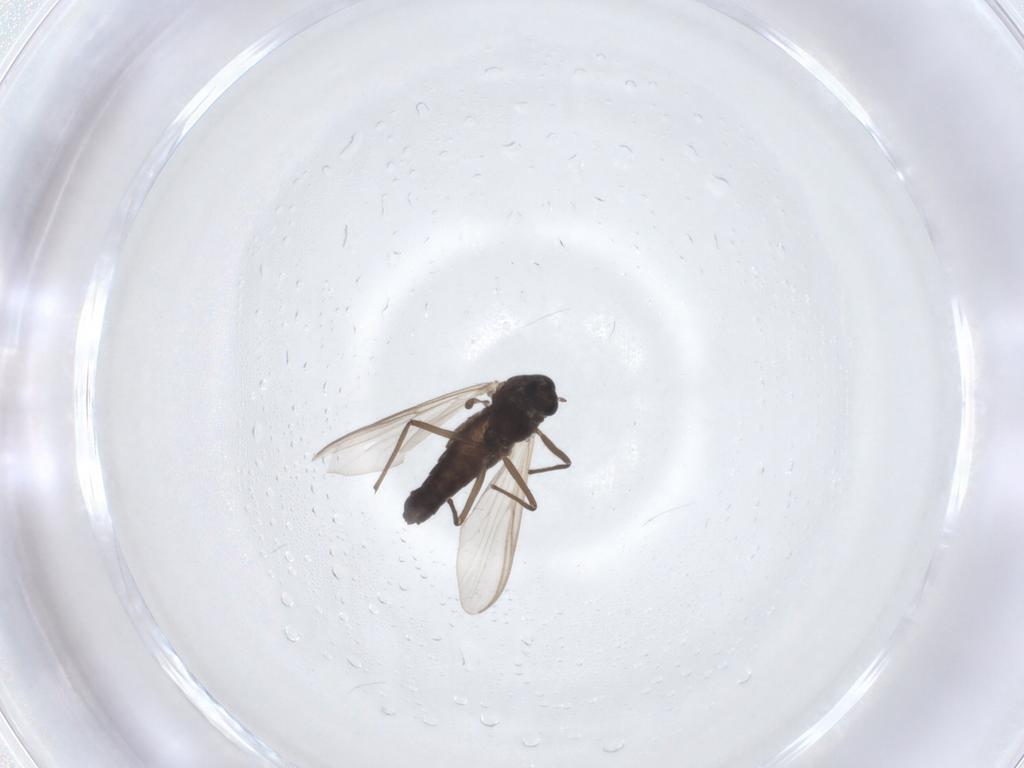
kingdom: Animalia
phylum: Arthropoda
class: Insecta
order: Diptera
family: Chironomidae
